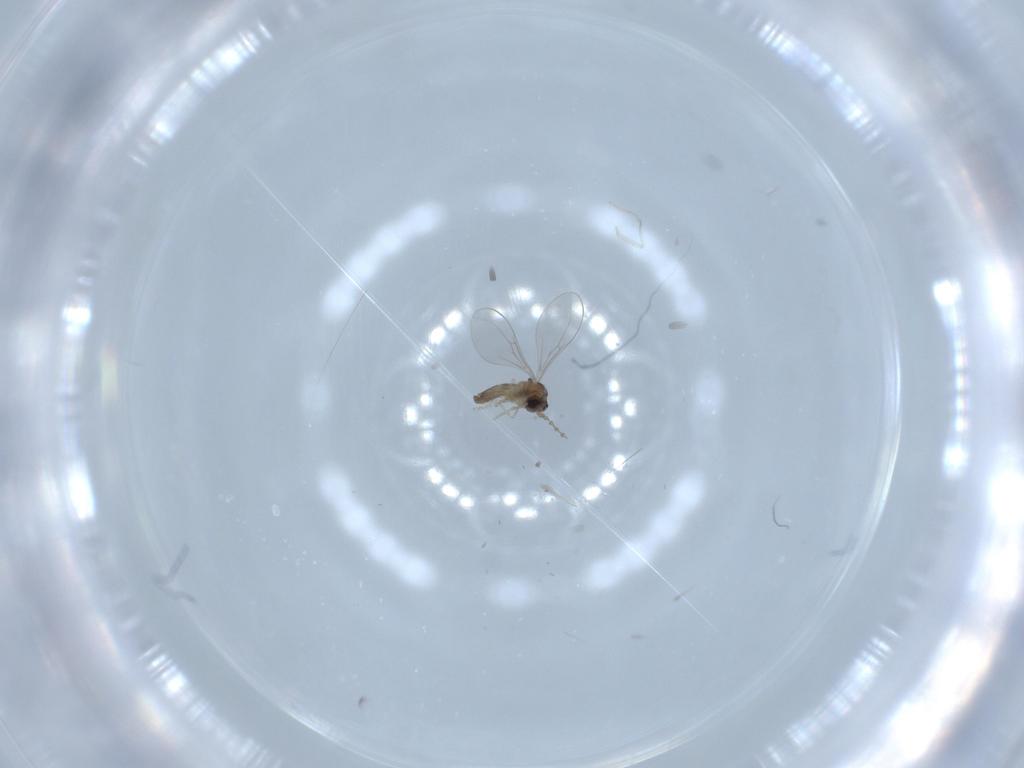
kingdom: Animalia
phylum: Arthropoda
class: Insecta
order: Diptera
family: Cecidomyiidae
